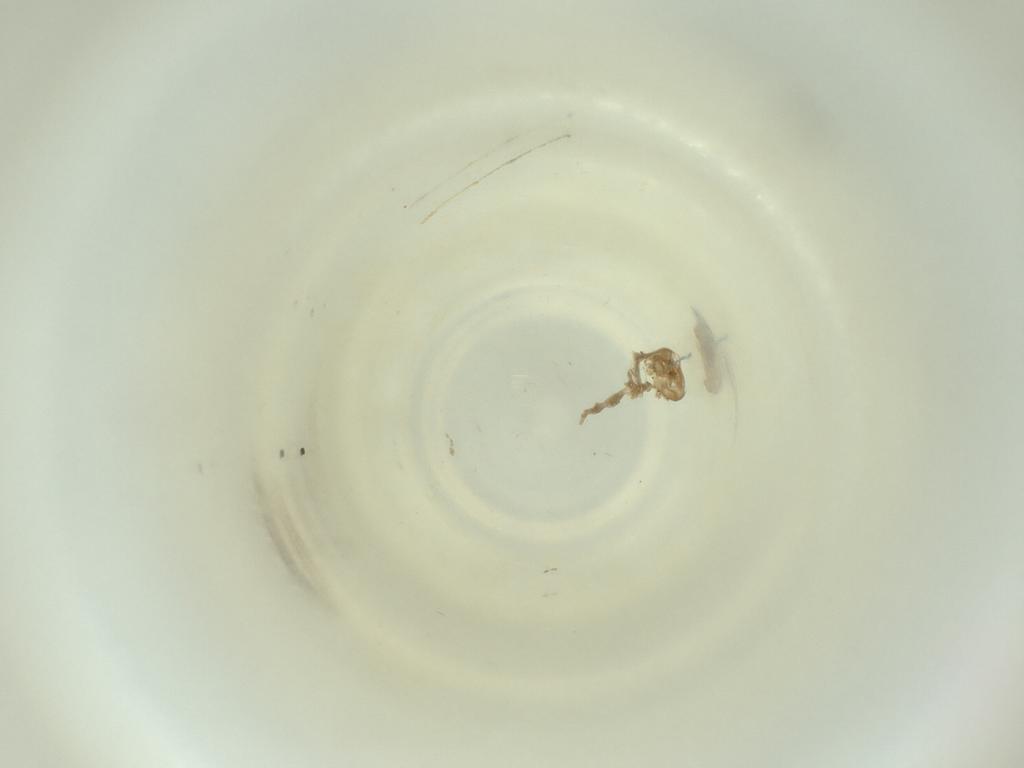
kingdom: Animalia
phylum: Arthropoda
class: Insecta
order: Diptera
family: Cecidomyiidae
